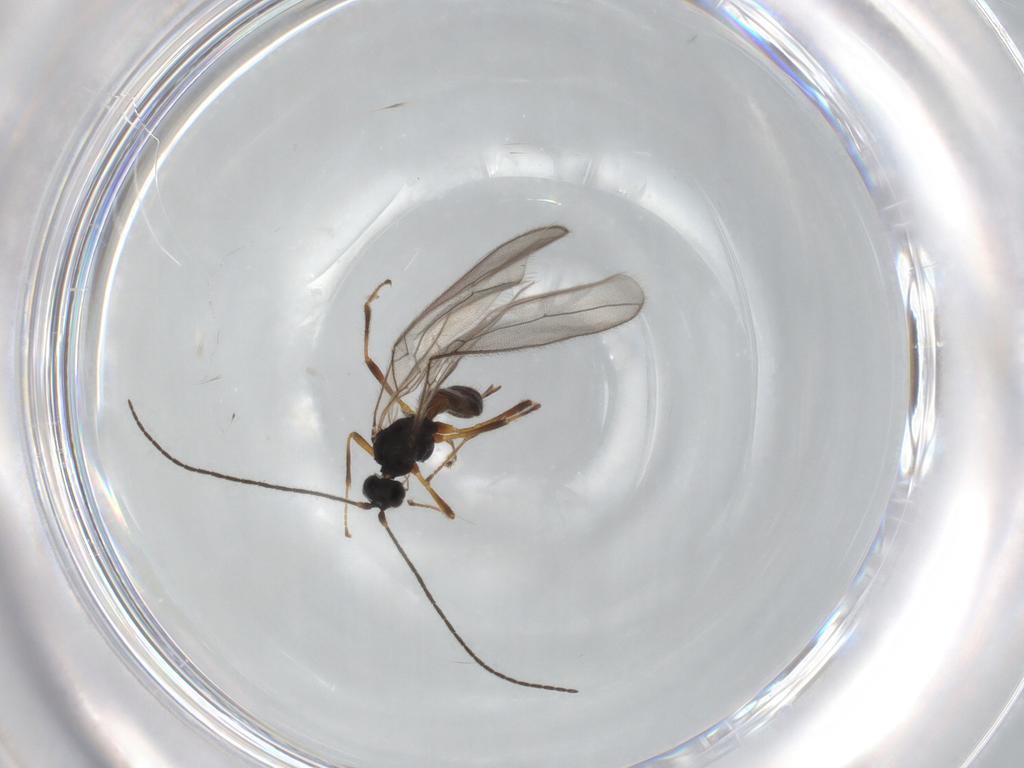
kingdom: Animalia
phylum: Arthropoda
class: Insecta
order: Hymenoptera
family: Braconidae
